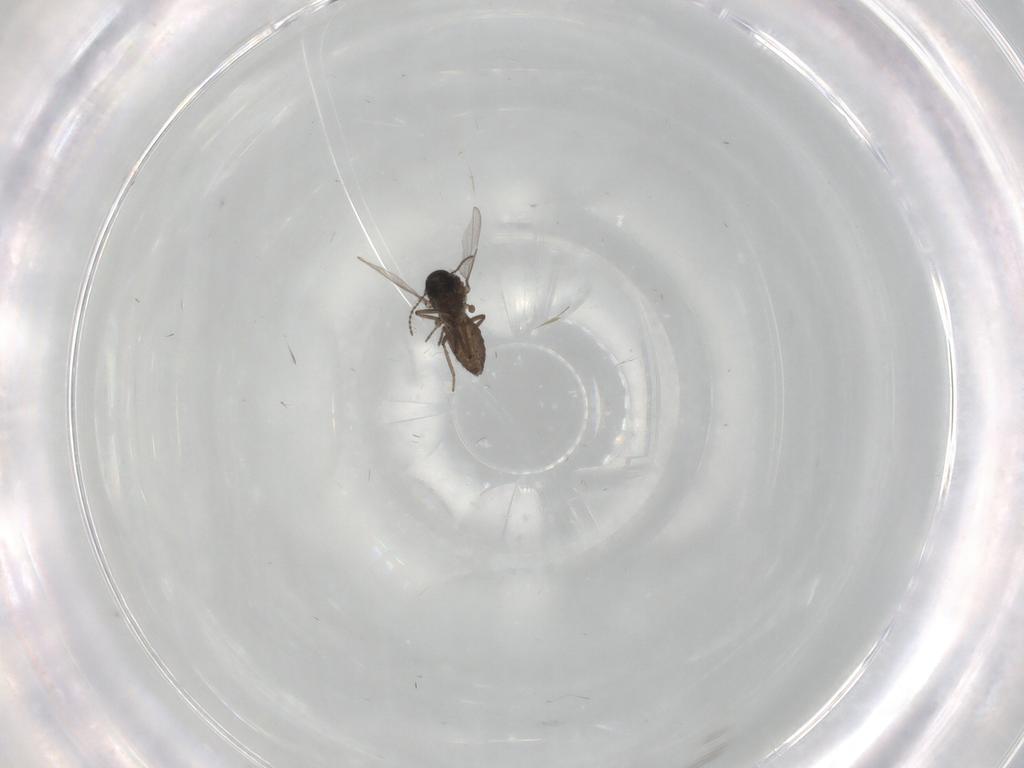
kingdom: Animalia
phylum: Arthropoda
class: Insecta
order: Diptera
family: Culicidae
